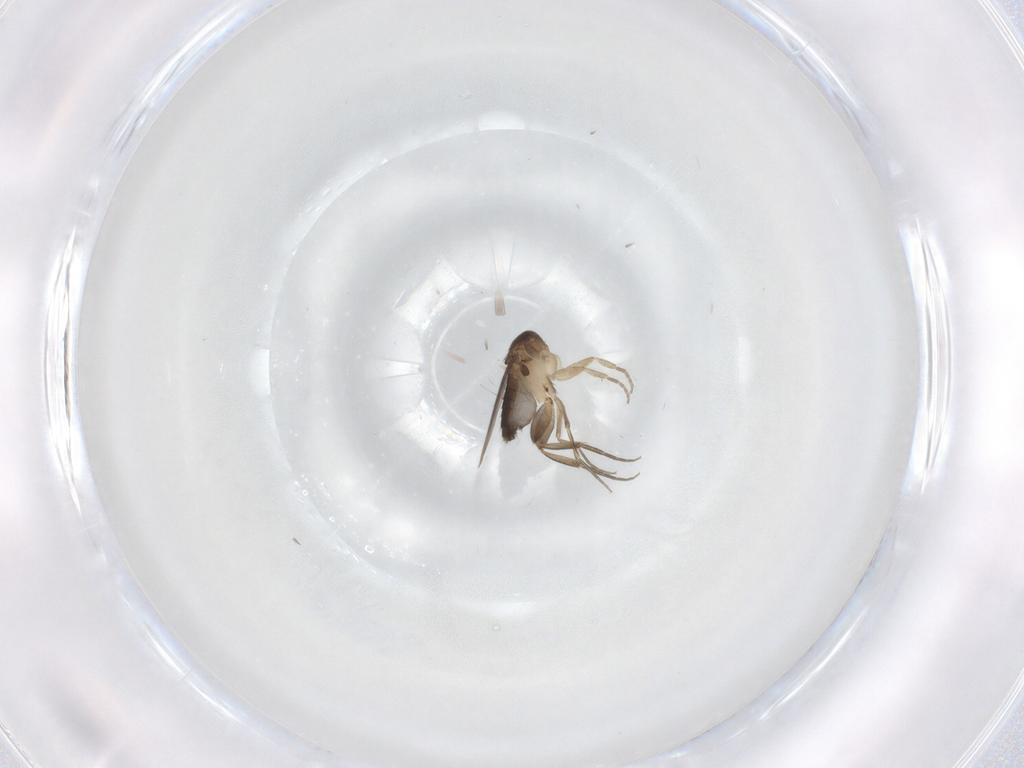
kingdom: Animalia
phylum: Arthropoda
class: Insecta
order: Diptera
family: Phoridae
